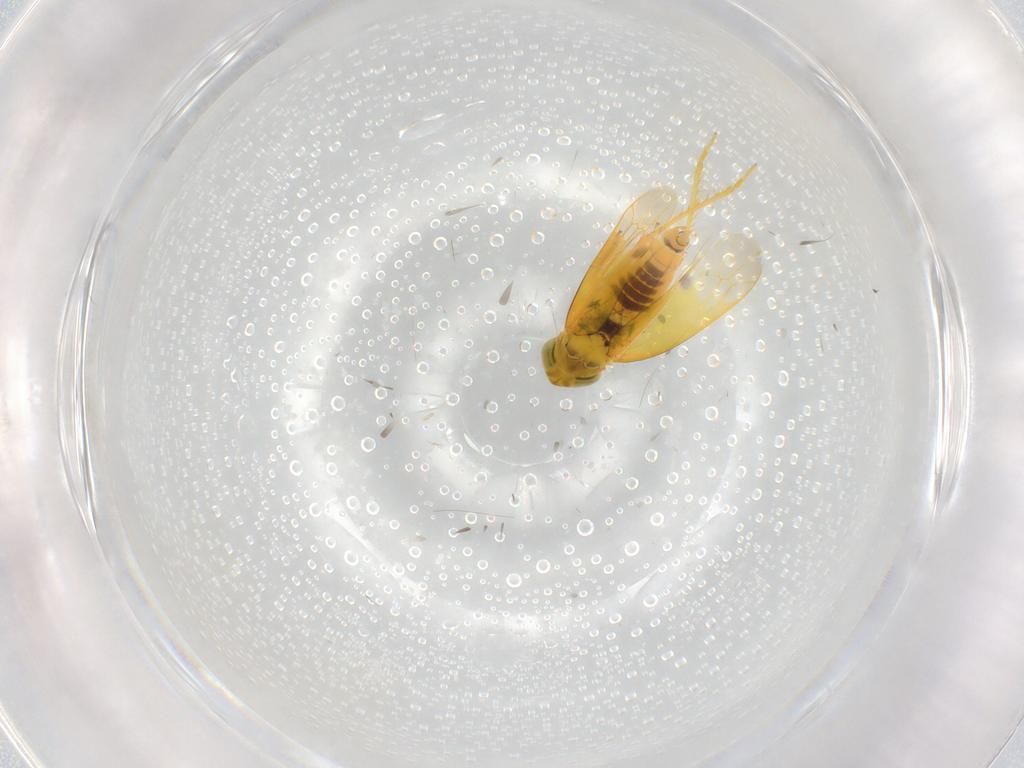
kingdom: Animalia
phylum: Arthropoda
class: Insecta
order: Hemiptera
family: Cicadellidae
